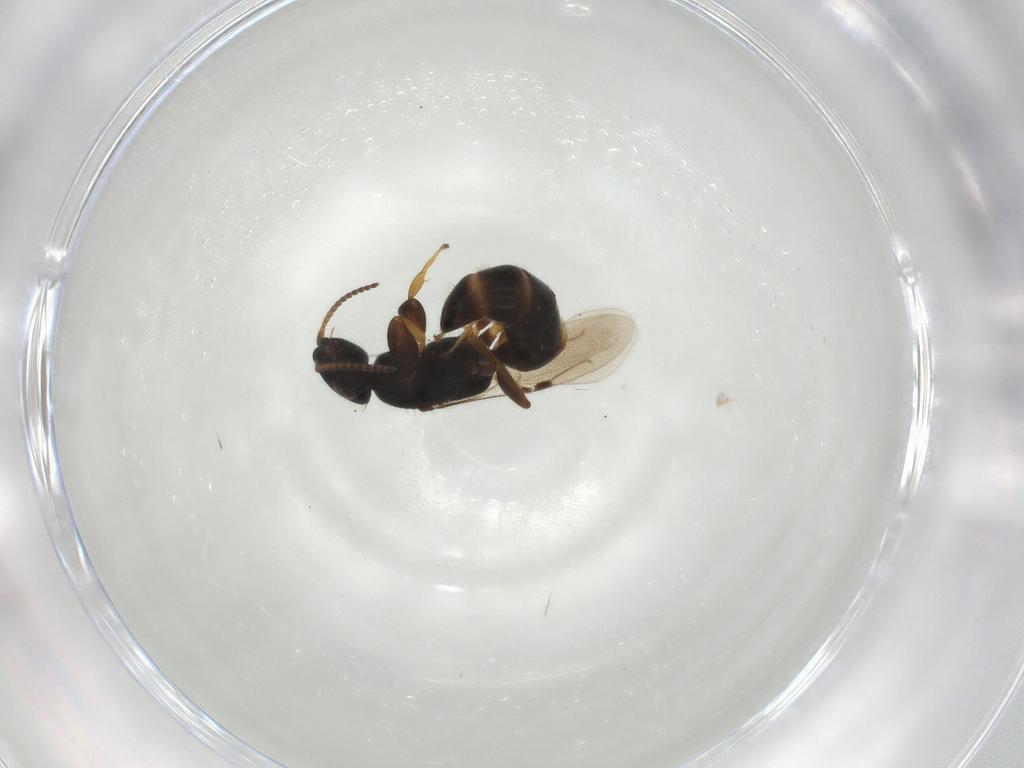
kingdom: Animalia
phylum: Arthropoda
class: Insecta
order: Hymenoptera
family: Bethylidae
